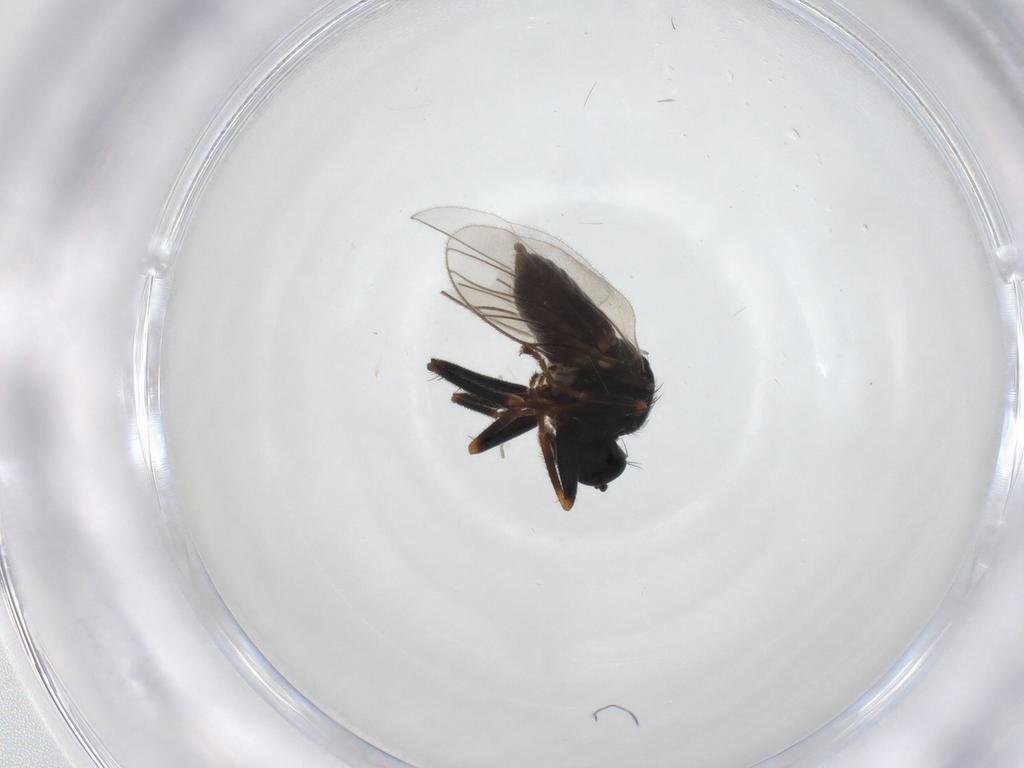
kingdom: Animalia
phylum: Arthropoda
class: Insecta
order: Diptera
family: Hybotidae
